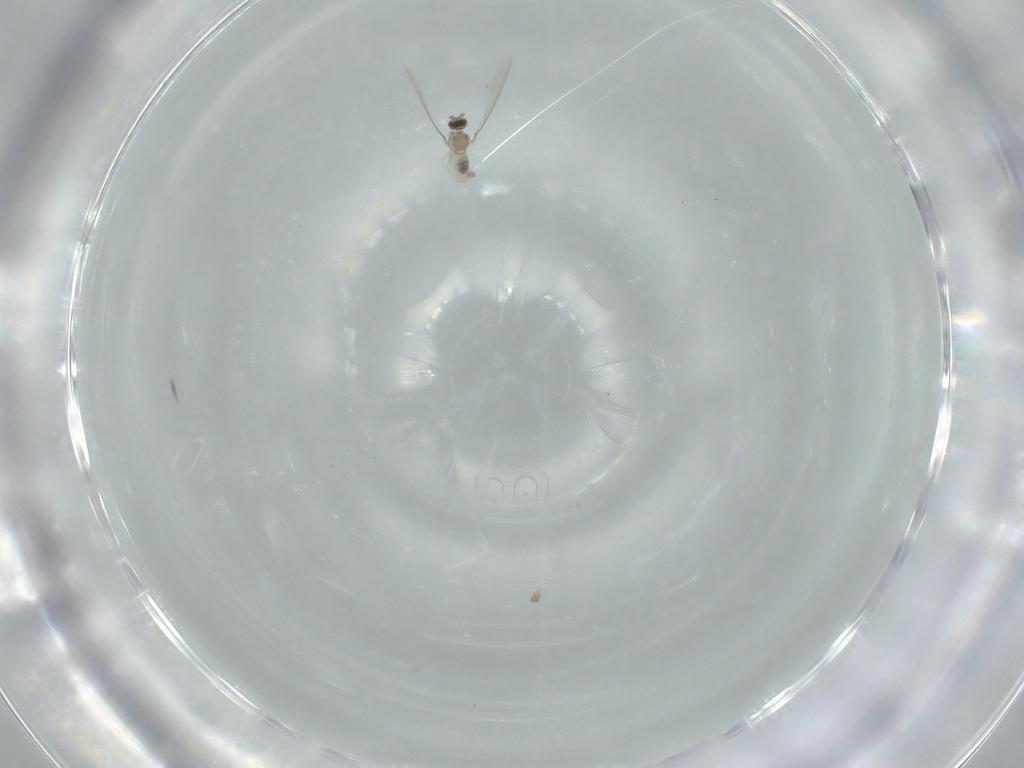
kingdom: Animalia
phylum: Arthropoda
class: Insecta
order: Diptera
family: Phoridae
